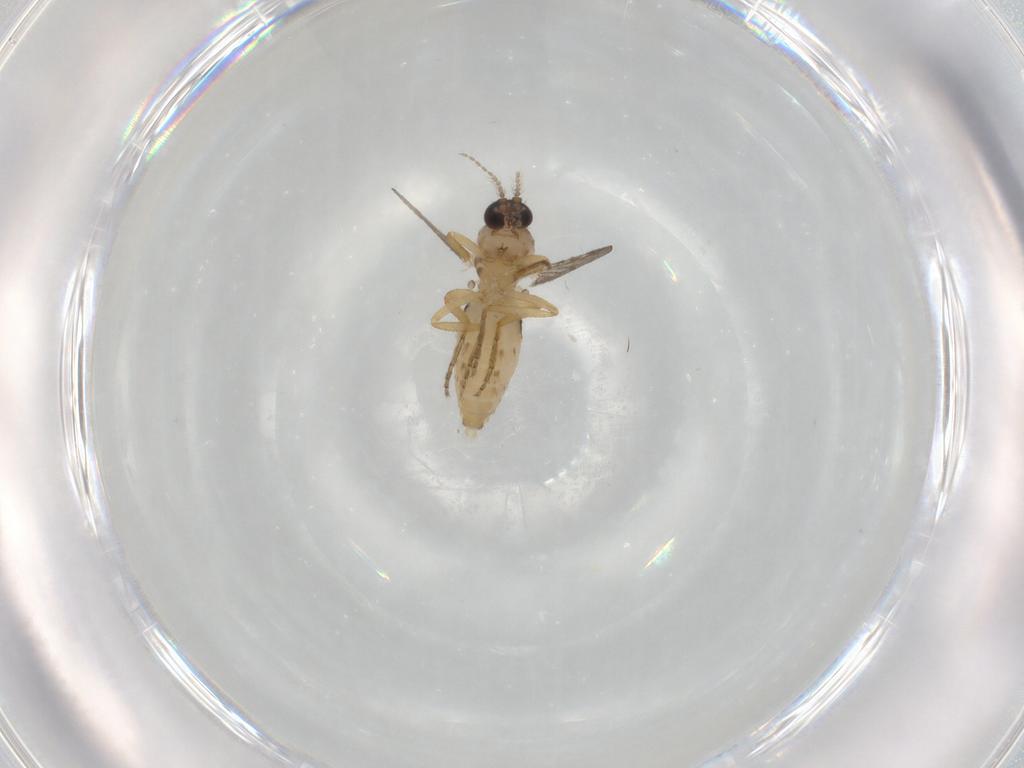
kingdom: Animalia
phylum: Arthropoda
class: Insecta
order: Diptera
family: Ceratopogonidae
